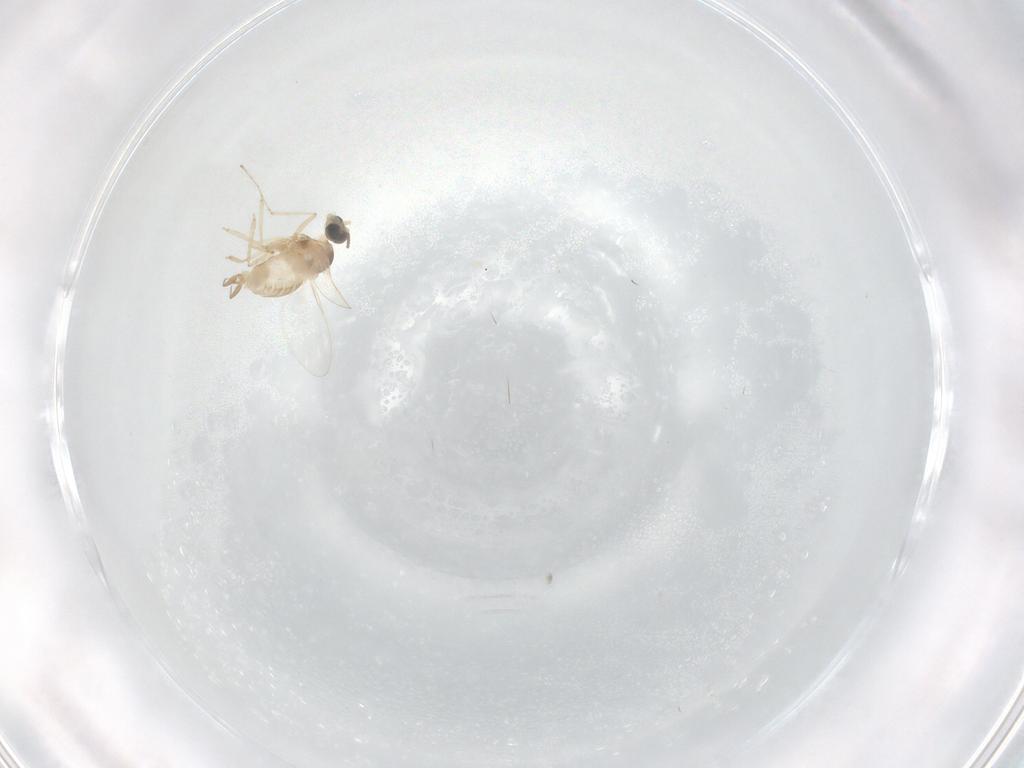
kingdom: Animalia
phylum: Arthropoda
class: Insecta
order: Diptera
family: Cecidomyiidae
